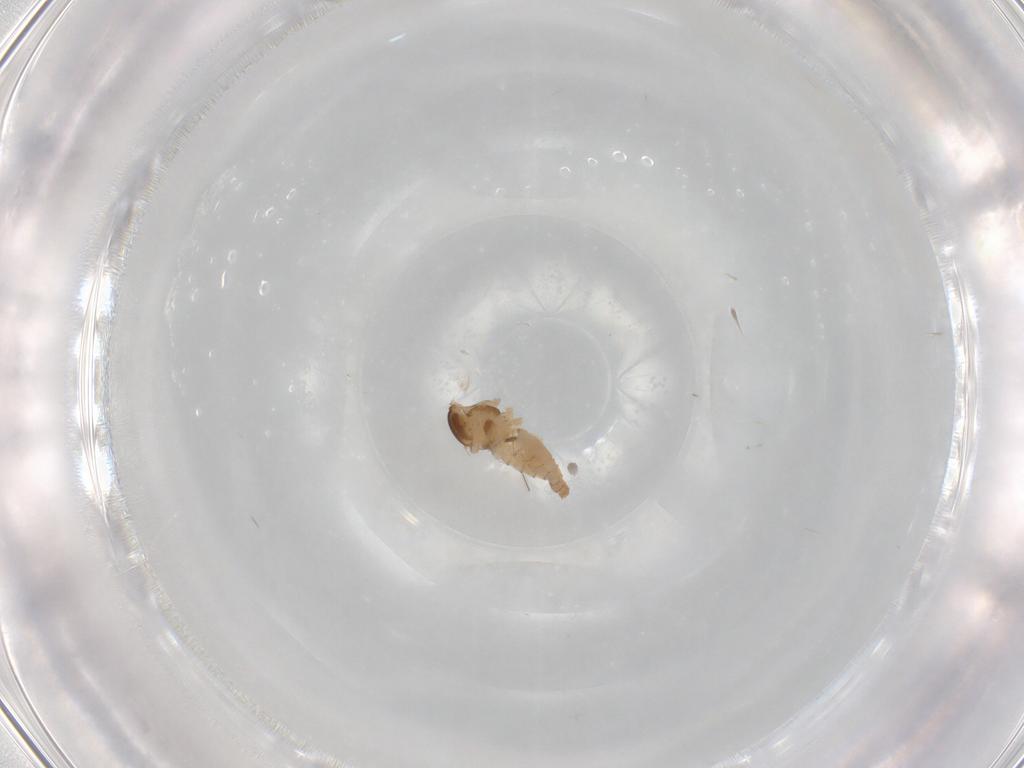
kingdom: Animalia
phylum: Arthropoda
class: Insecta
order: Diptera
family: Cecidomyiidae
